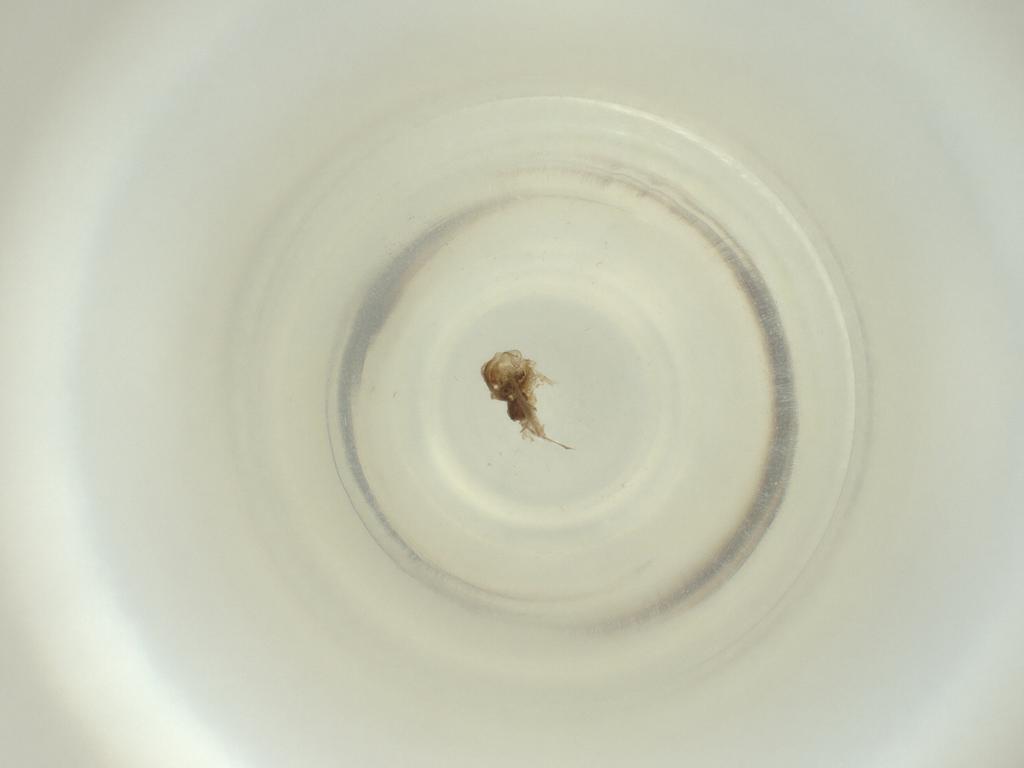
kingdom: Animalia
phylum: Arthropoda
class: Insecta
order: Diptera
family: Cecidomyiidae
